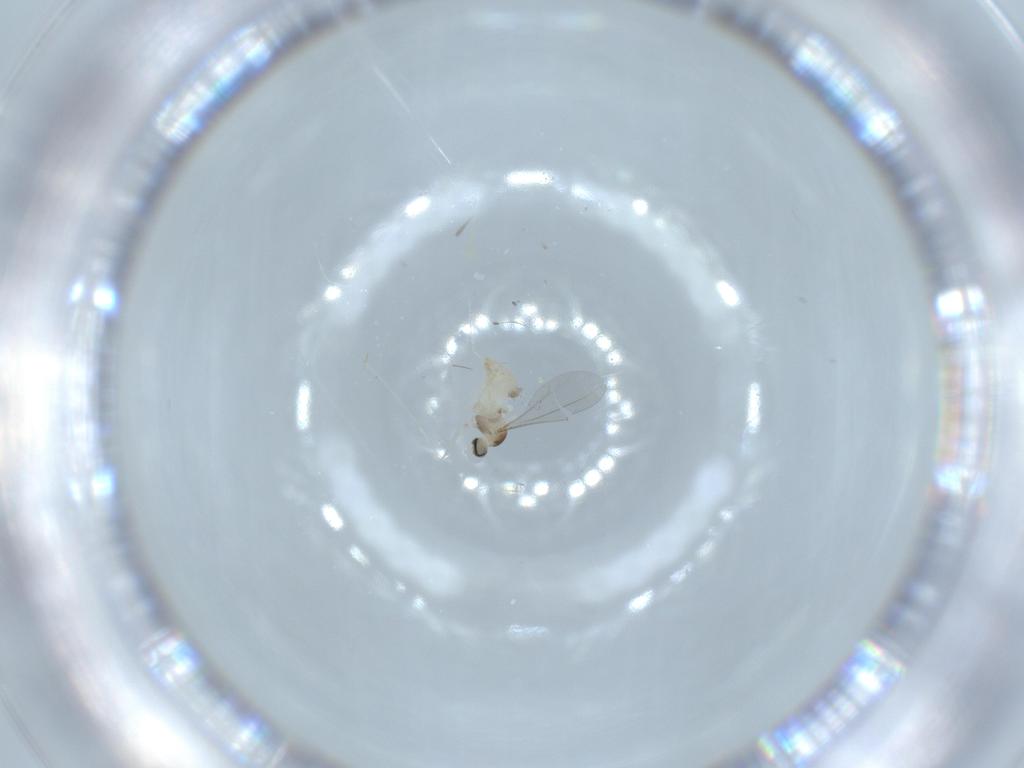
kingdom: Animalia
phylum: Arthropoda
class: Insecta
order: Diptera
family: Cecidomyiidae
